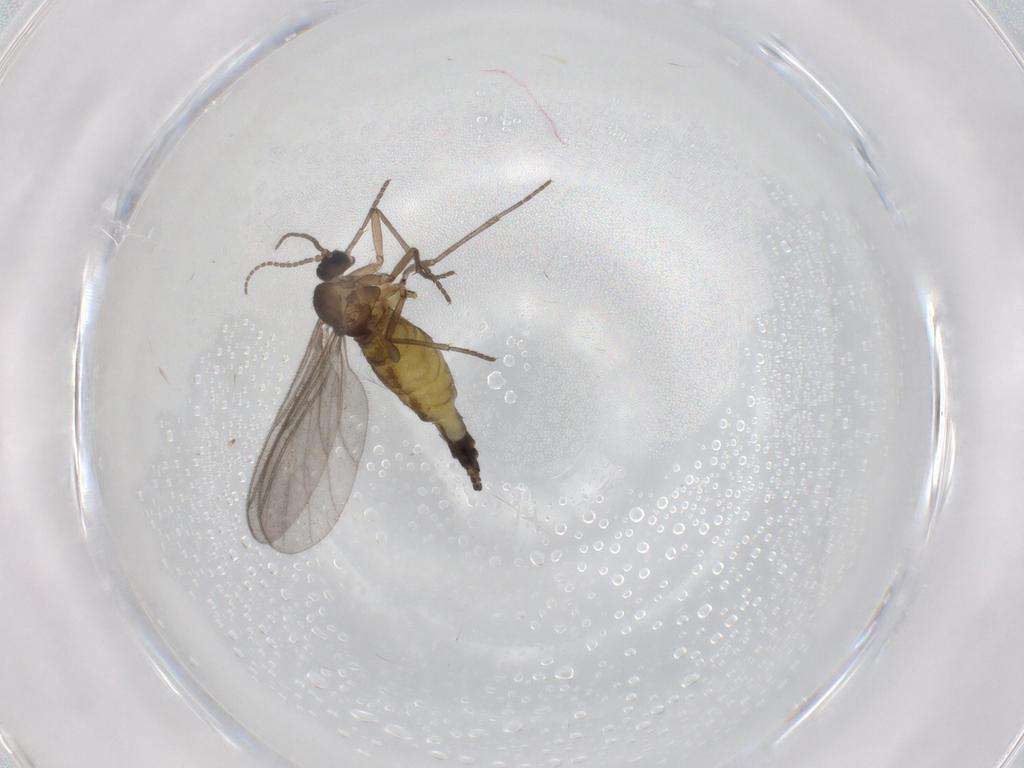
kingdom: Animalia
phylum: Arthropoda
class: Insecta
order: Diptera
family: Sciaridae
